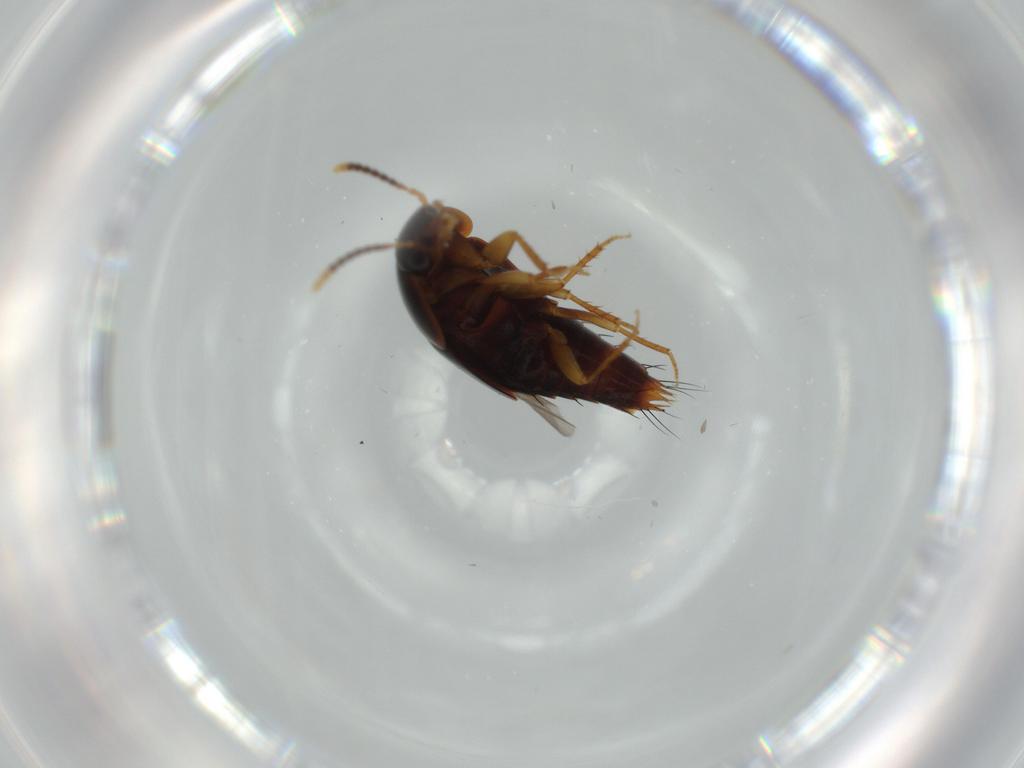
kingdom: Animalia
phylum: Arthropoda
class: Insecta
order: Coleoptera
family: Staphylinidae
